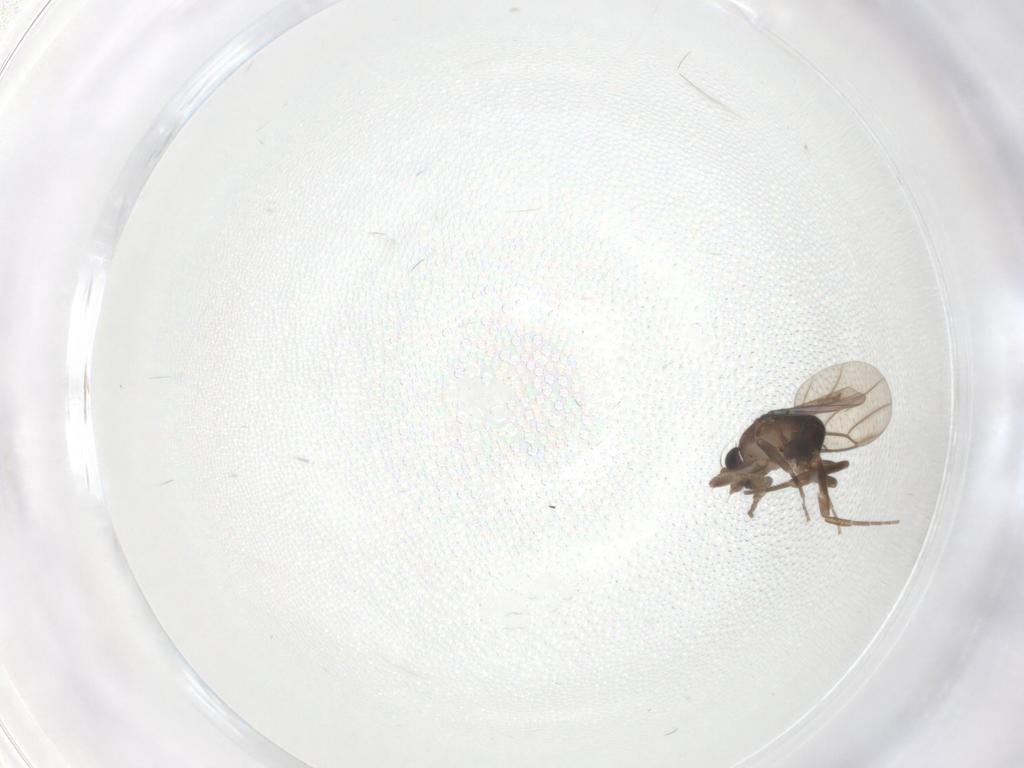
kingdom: Animalia
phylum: Arthropoda
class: Insecta
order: Diptera
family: Cecidomyiidae
